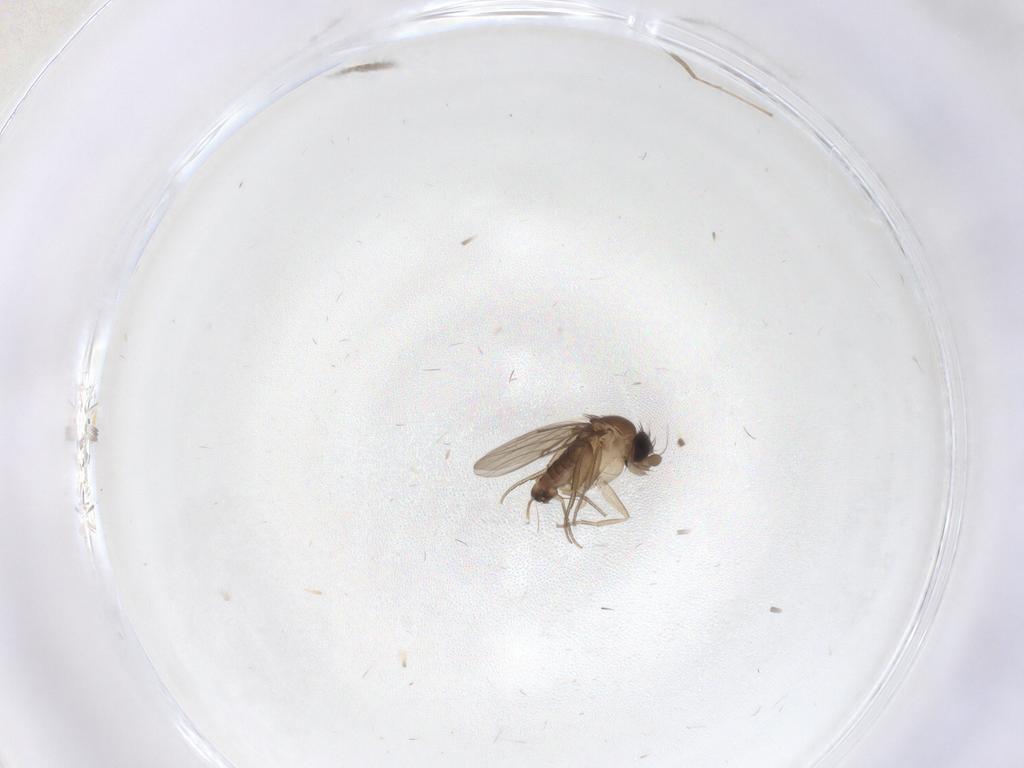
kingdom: Animalia
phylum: Arthropoda
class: Insecta
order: Diptera
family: Chironomidae
